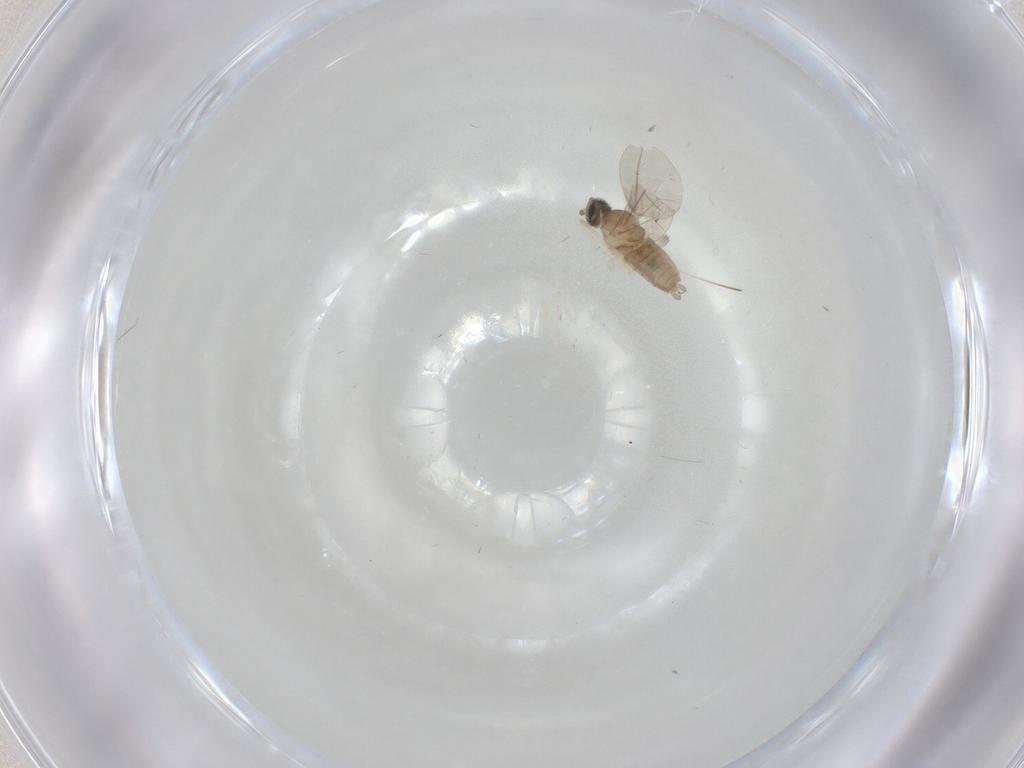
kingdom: Animalia
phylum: Arthropoda
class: Insecta
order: Diptera
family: Cecidomyiidae
